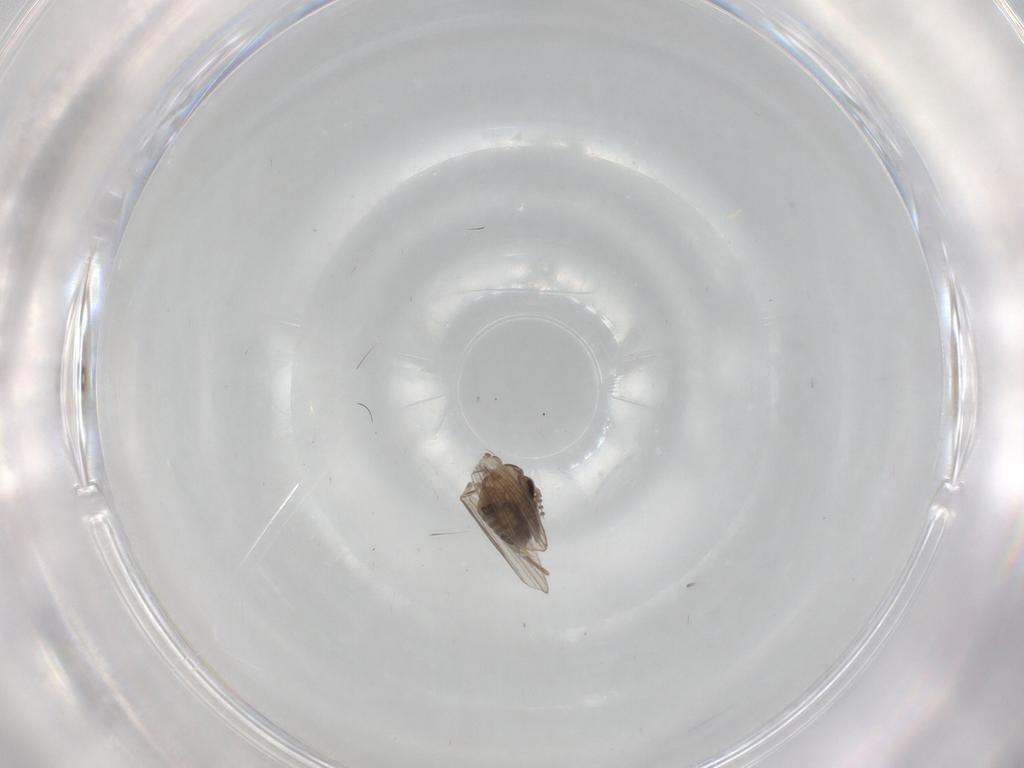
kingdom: Animalia
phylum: Arthropoda
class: Insecta
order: Diptera
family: Psychodidae
